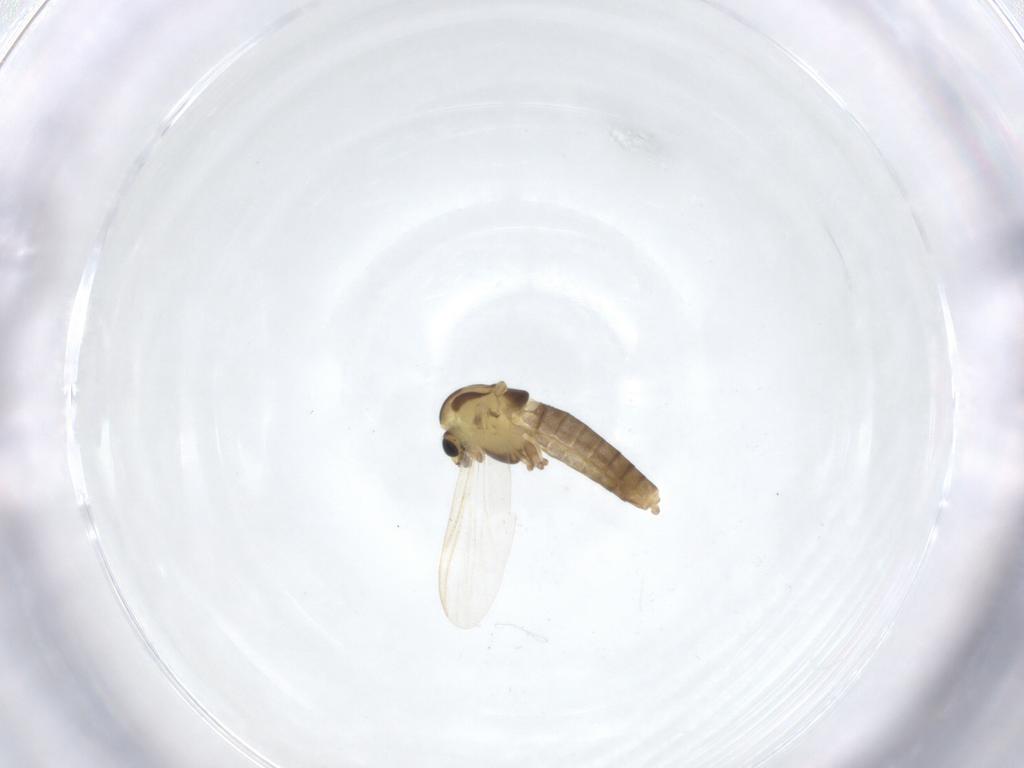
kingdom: Animalia
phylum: Arthropoda
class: Insecta
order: Diptera
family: Chironomidae
